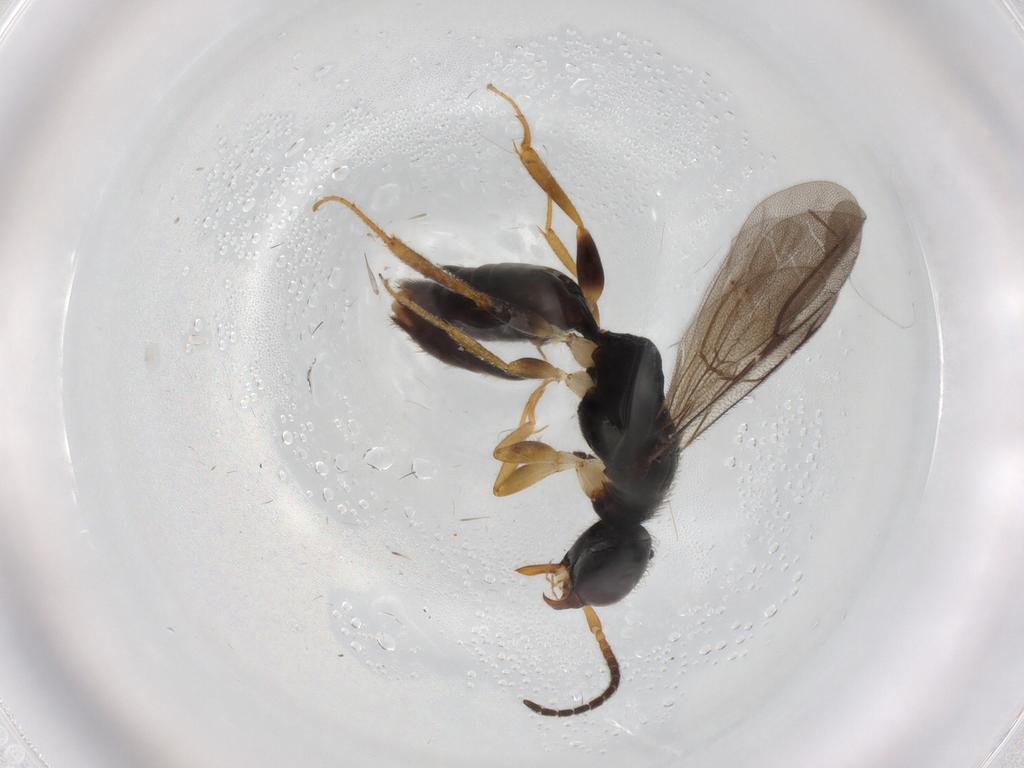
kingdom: Animalia
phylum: Arthropoda
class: Insecta
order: Hymenoptera
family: Bethylidae
